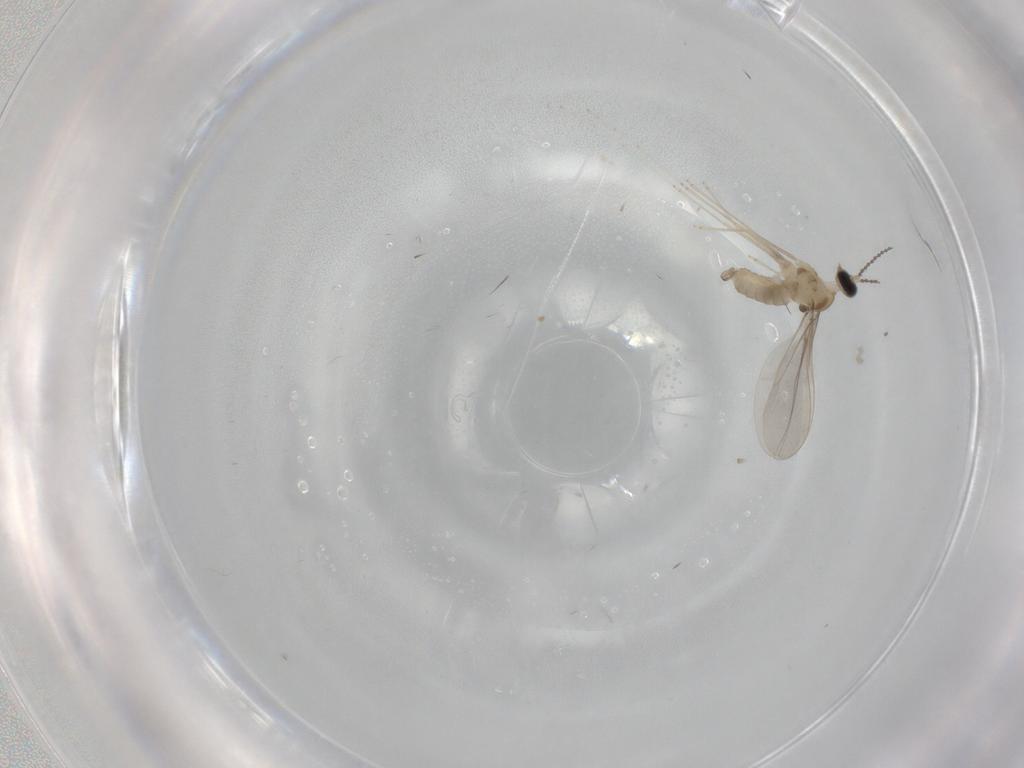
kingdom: Animalia
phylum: Arthropoda
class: Insecta
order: Diptera
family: Cecidomyiidae
